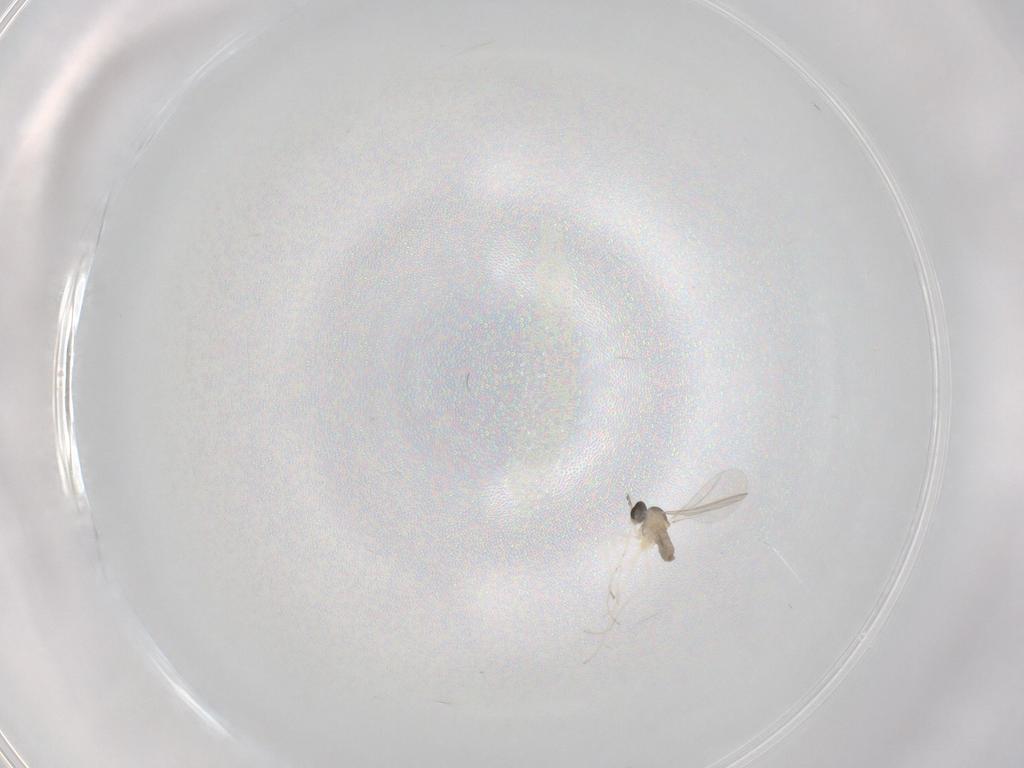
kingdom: Animalia
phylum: Arthropoda
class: Insecta
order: Diptera
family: Cecidomyiidae
